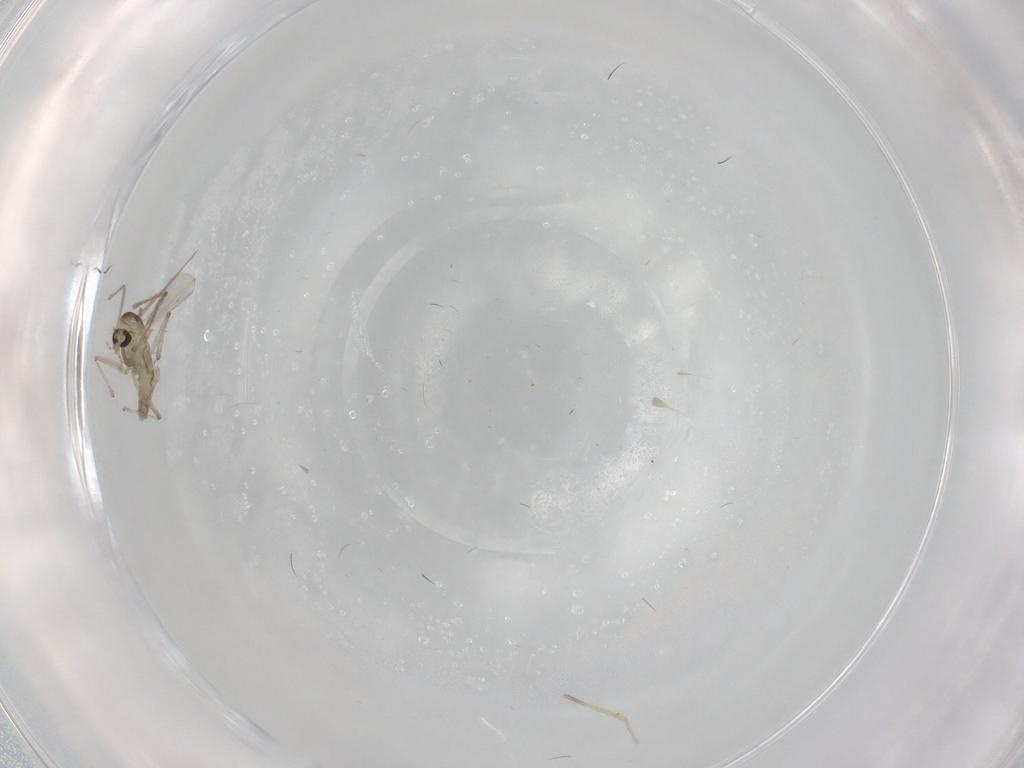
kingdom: Animalia
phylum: Arthropoda
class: Insecta
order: Diptera
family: Chironomidae
